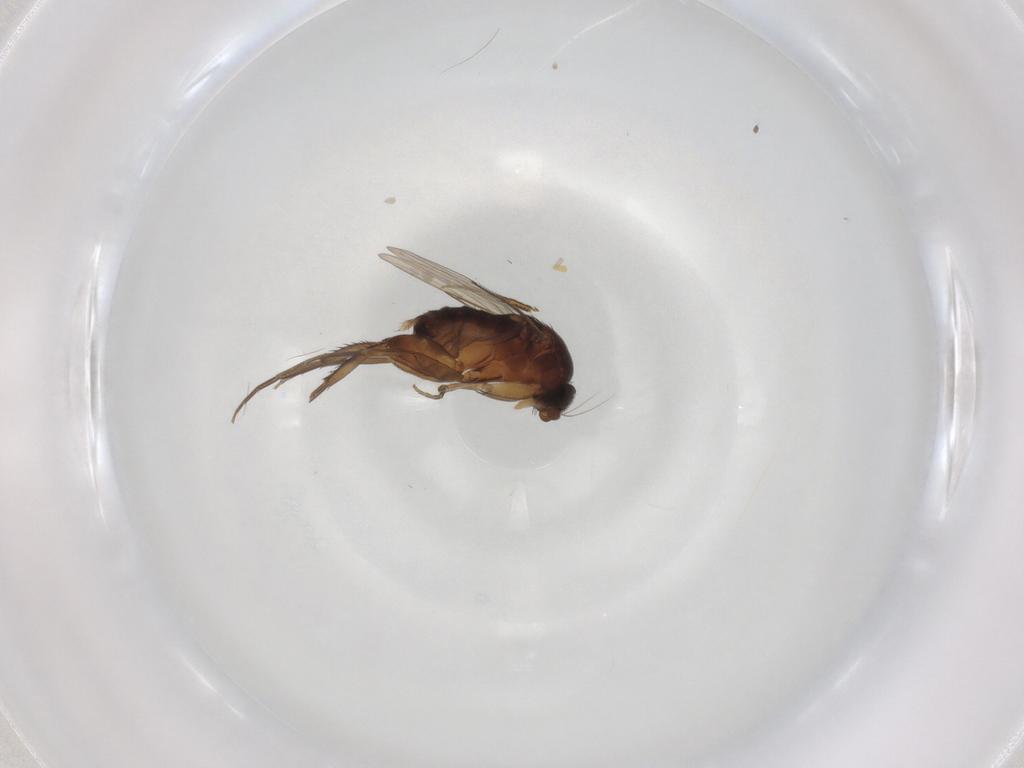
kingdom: Animalia
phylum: Arthropoda
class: Insecta
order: Diptera
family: Phoridae
